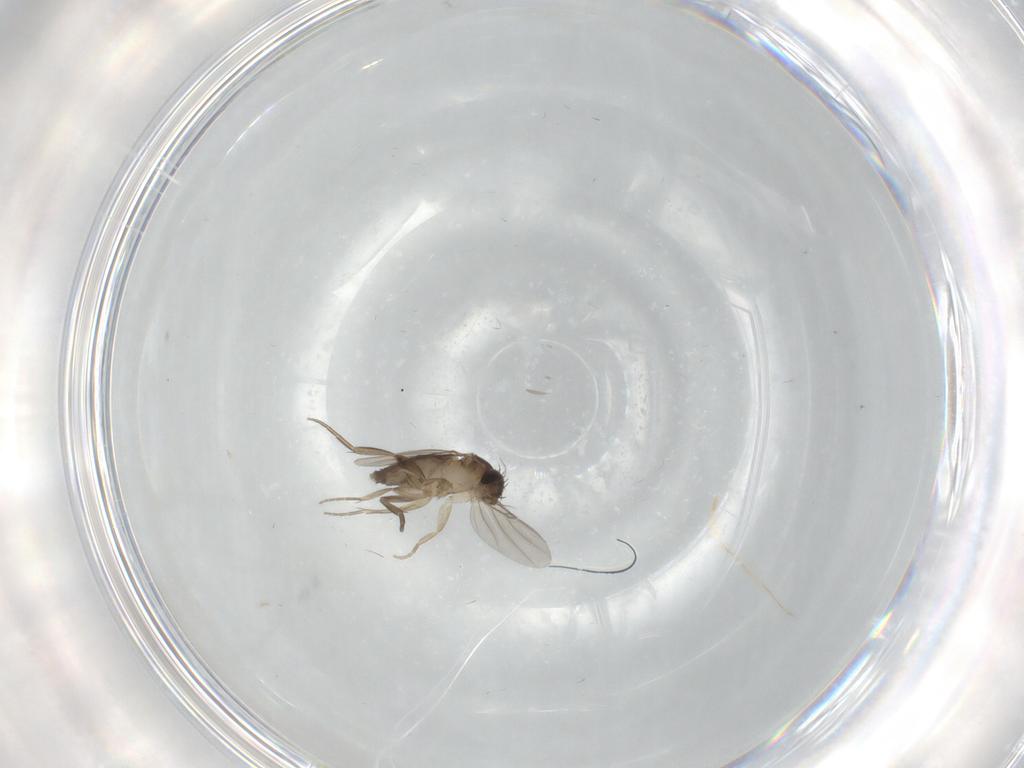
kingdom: Animalia
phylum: Arthropoda
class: Insecta
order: Diptera
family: Phoridae
